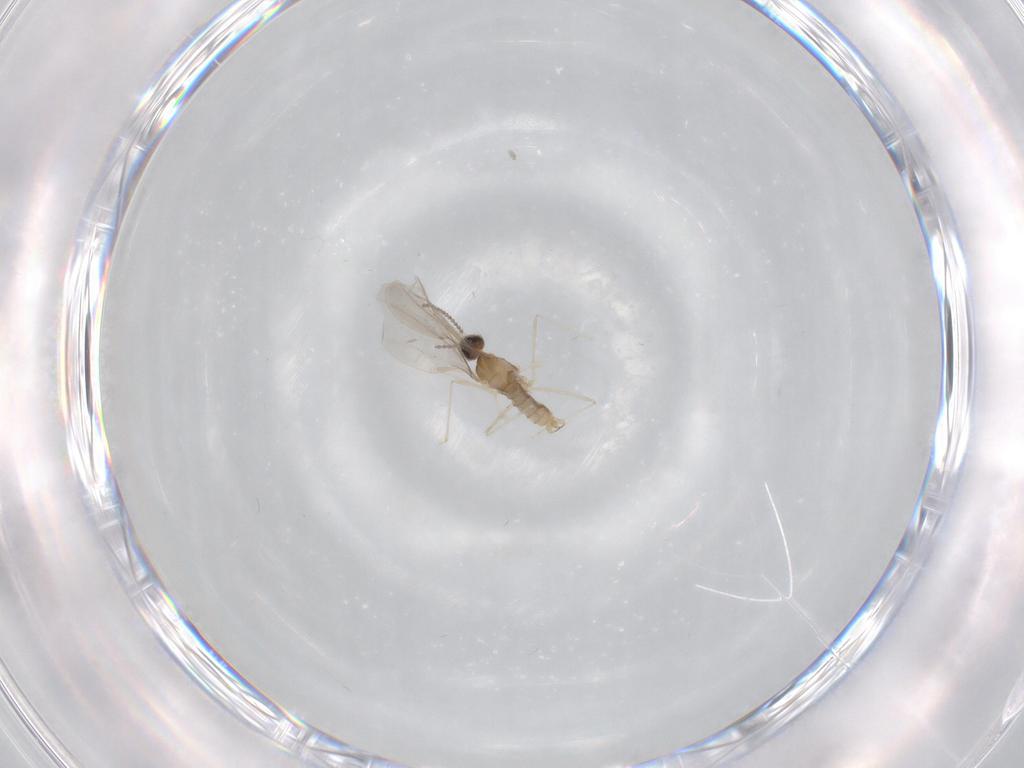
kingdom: Animalia
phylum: Arthropoda
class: Insecta
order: Diptera
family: Cecidomyiidae
